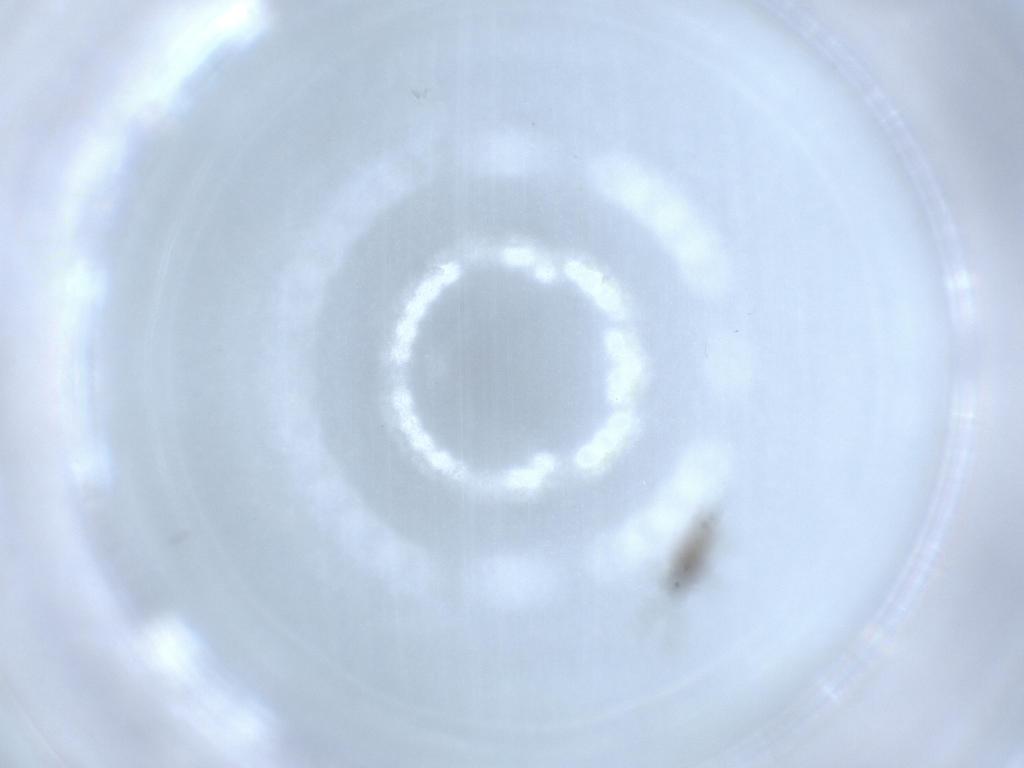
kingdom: Animalia
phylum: Arthropoda
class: Insecta
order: Diptera
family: Cecidomyiidae
